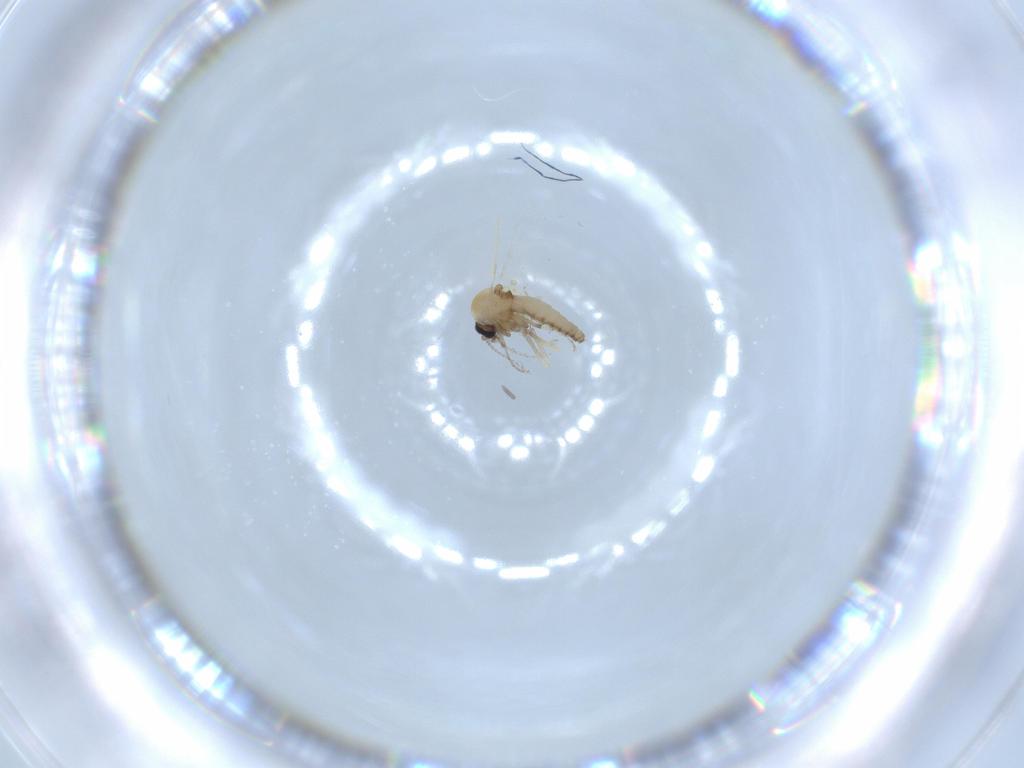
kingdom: Animalia
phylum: Arthropoda
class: Insecta
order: Diptera
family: Ceratopogonidae
